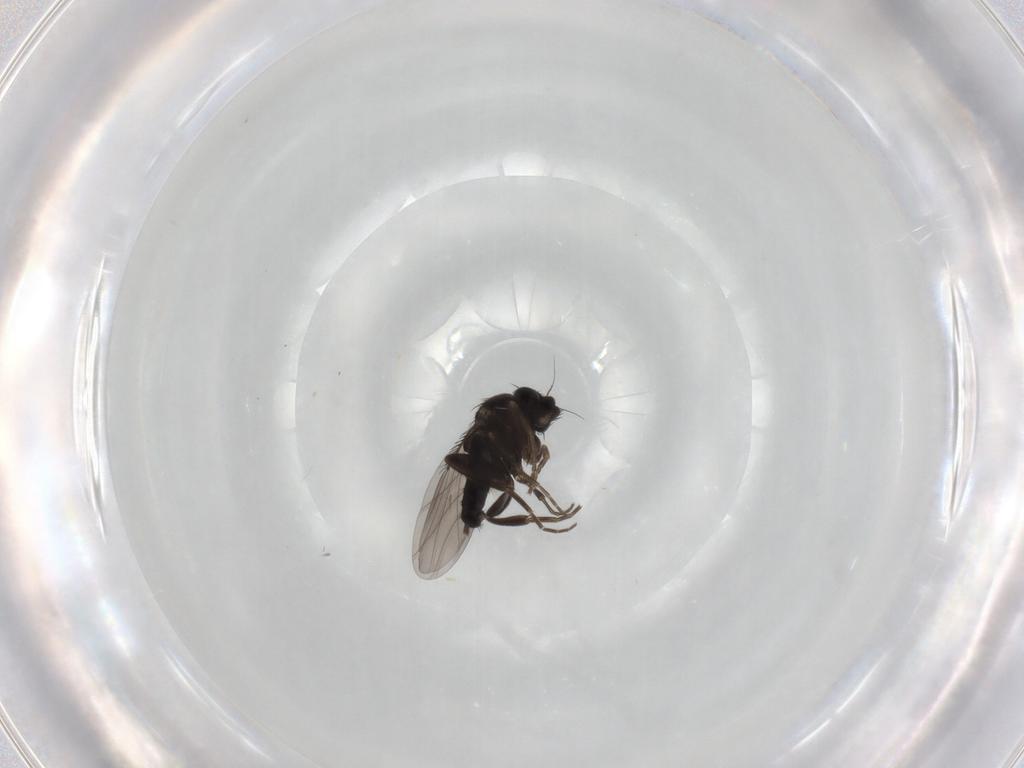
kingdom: Animalia
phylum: Arthropoda
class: Insecta
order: Diptera
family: Phoridae
